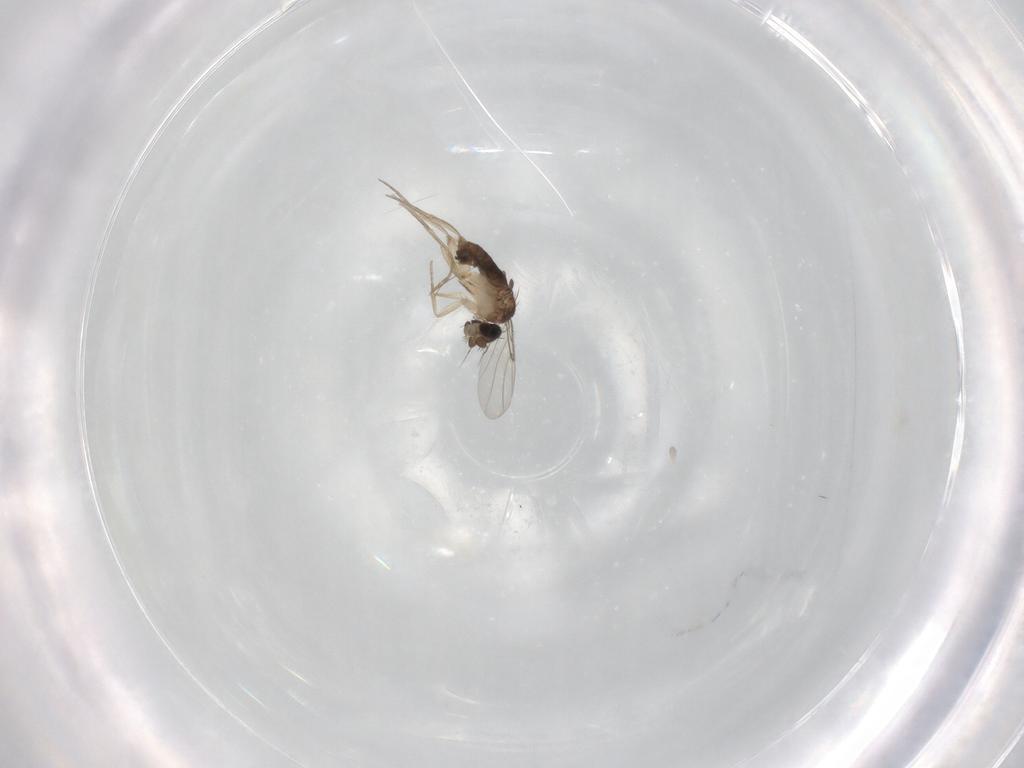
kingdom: Animalia
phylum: Arthropoda
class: Insecta
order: Diptera
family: Phoridae
